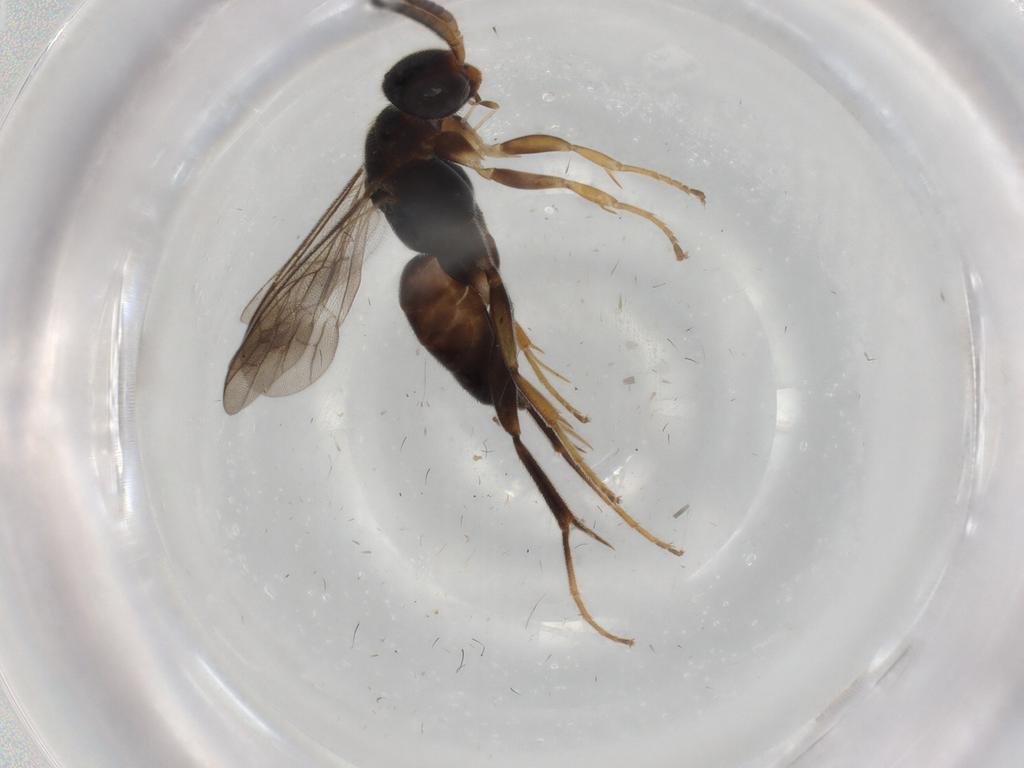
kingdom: Animalia
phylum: Arthropoda
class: Insecta
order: Hymenoptera
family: Pompilidae
